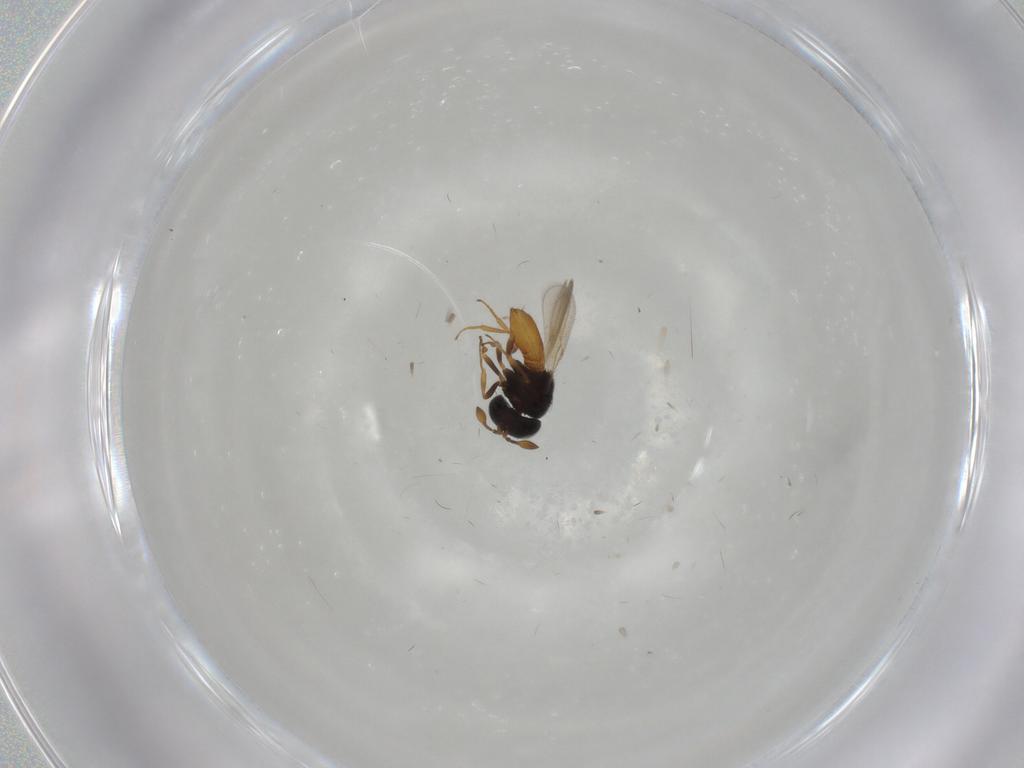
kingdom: Animalia
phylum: Arthropoda
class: Insecta
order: Hymenoptera
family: Scelionidae
